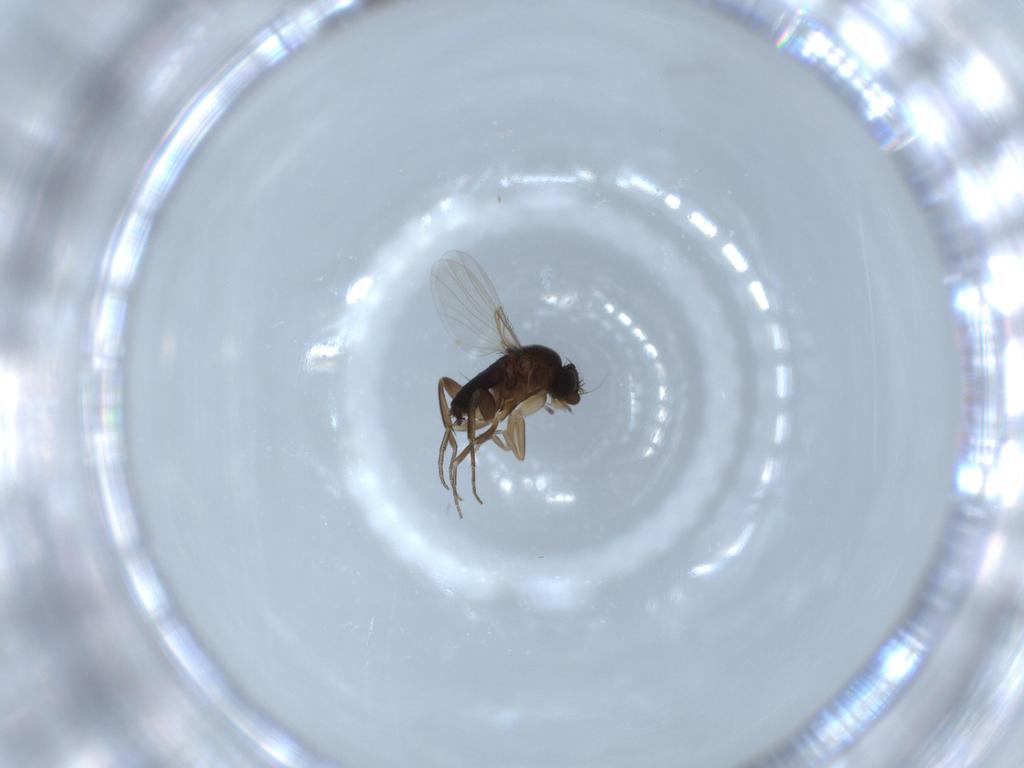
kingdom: Animalia
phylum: Arthropoda
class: Insecta
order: Diptera
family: Phoridae
